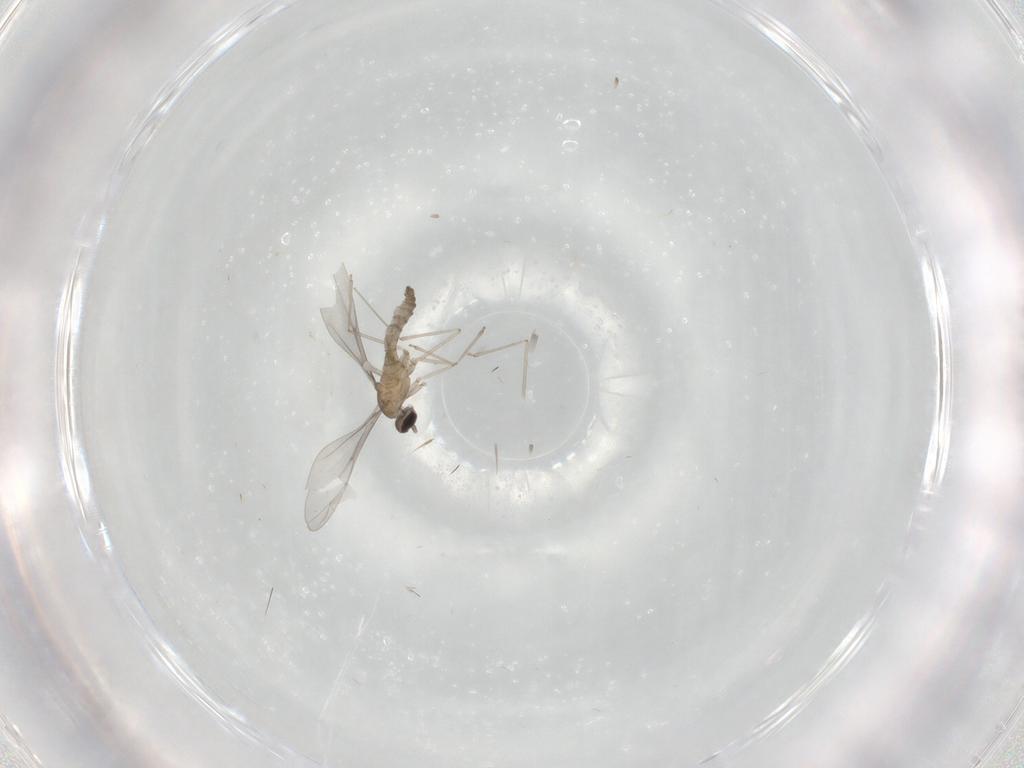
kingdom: Animalia
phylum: Arthropoda
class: Insecta
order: Diptera
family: Cecidomyiidae
